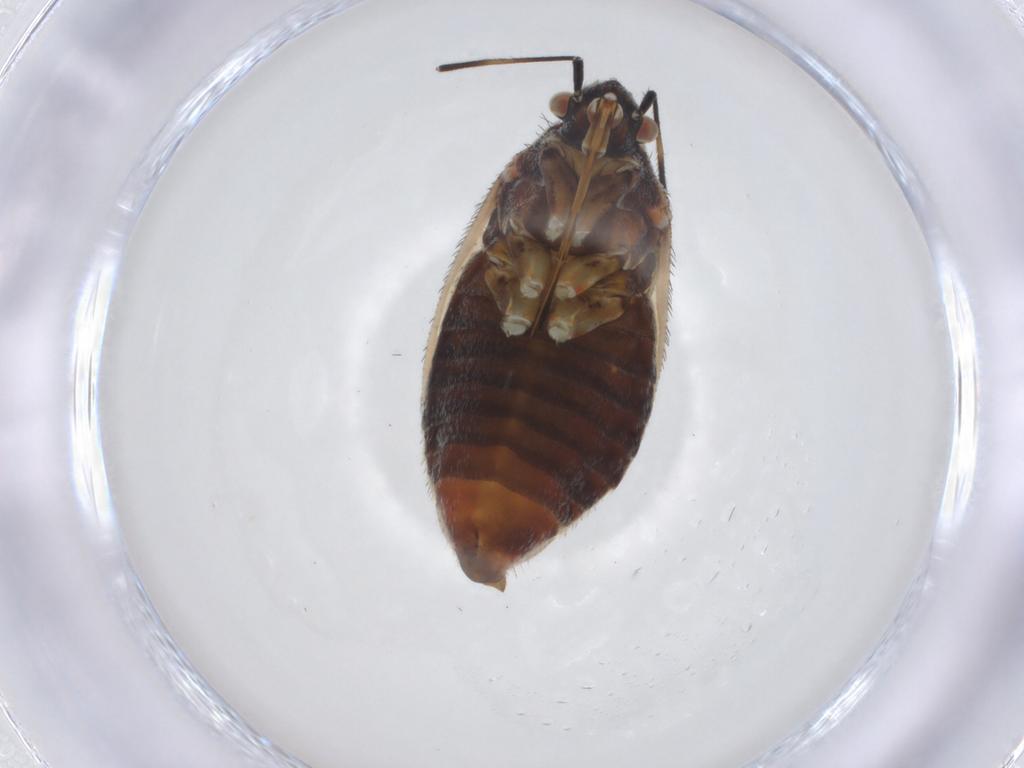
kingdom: Animalia
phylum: Arthropoda
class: Insecta
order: Hemiptera
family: Miridae
